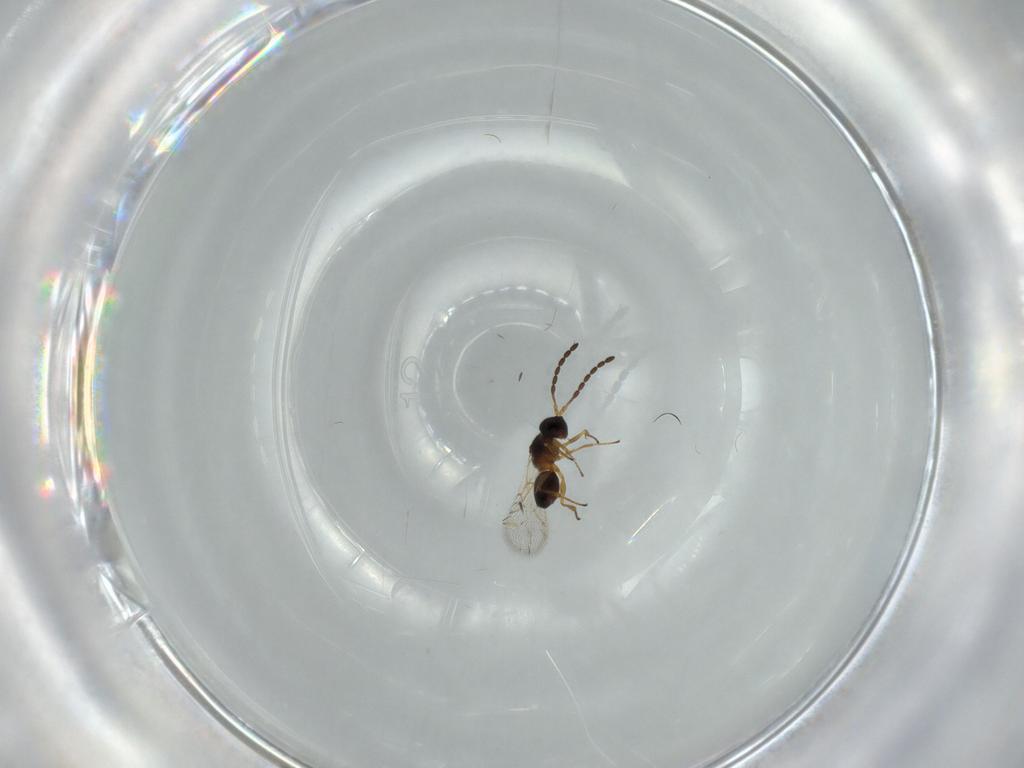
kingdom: Animalia
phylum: Arthropoda
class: Insecta
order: Hymenoptera
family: Figitidae
